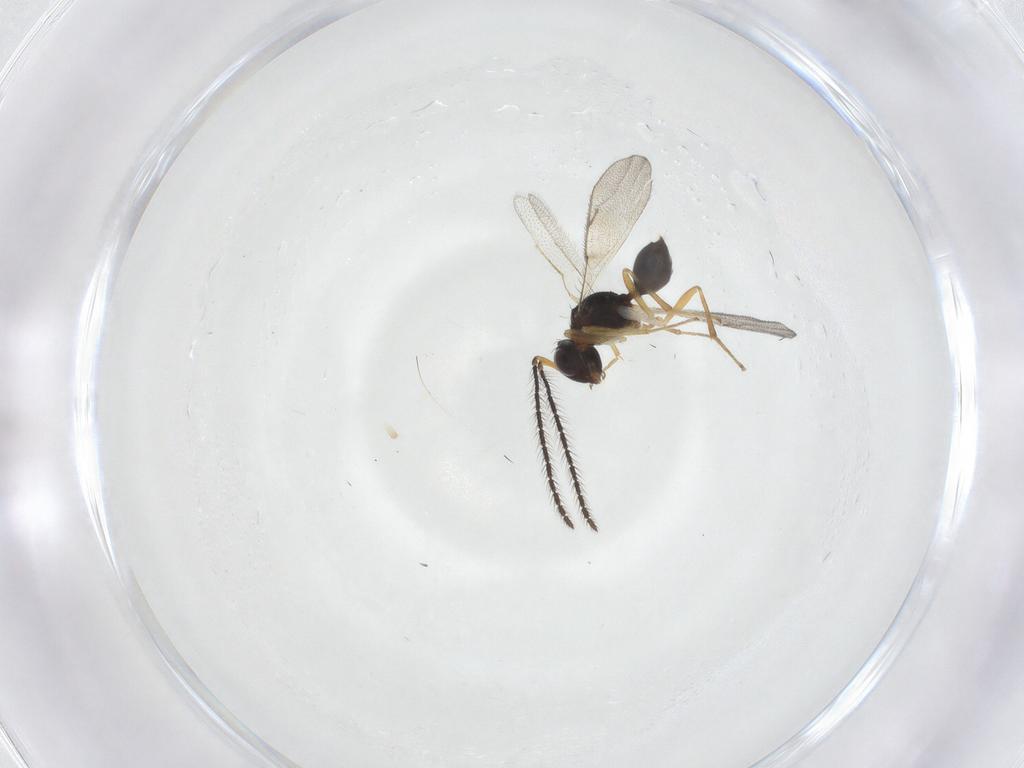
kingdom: Animalia
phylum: Arthropoda
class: Insecta
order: Hymenoptera
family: Diparidae
